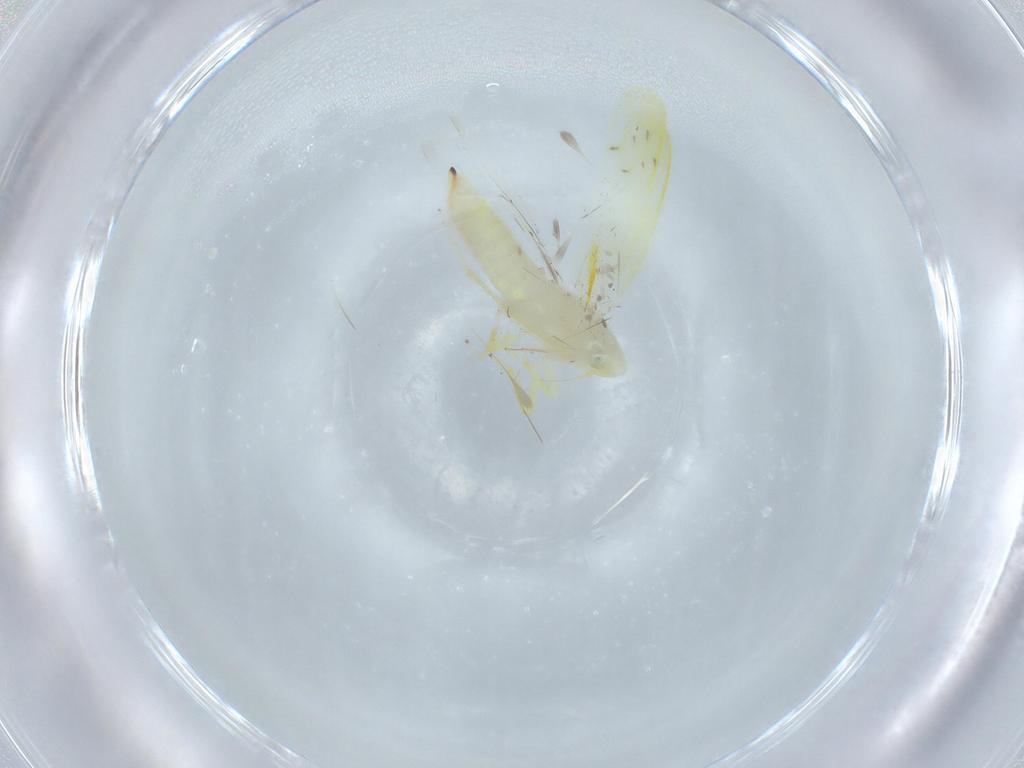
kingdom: Animalia
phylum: Arthropoda
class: Insecta
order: Hemiptera
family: Cicadellidae
